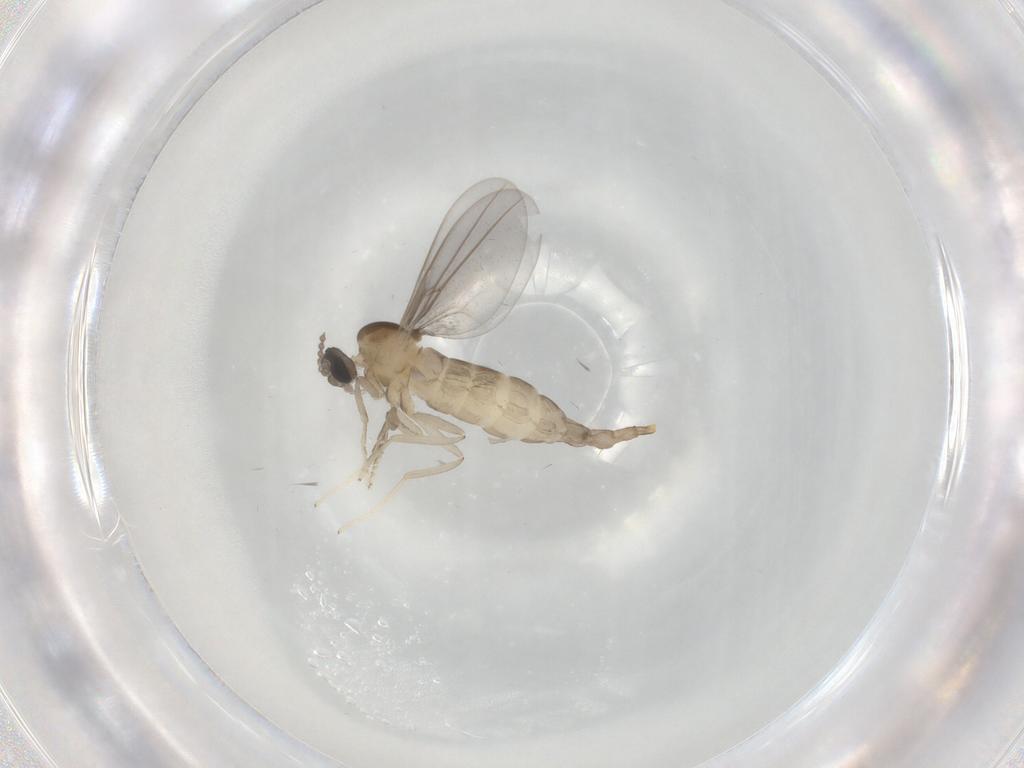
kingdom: Animalia
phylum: Arthropoda
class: Insecta
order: Diptera
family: Cecidomyiidae
